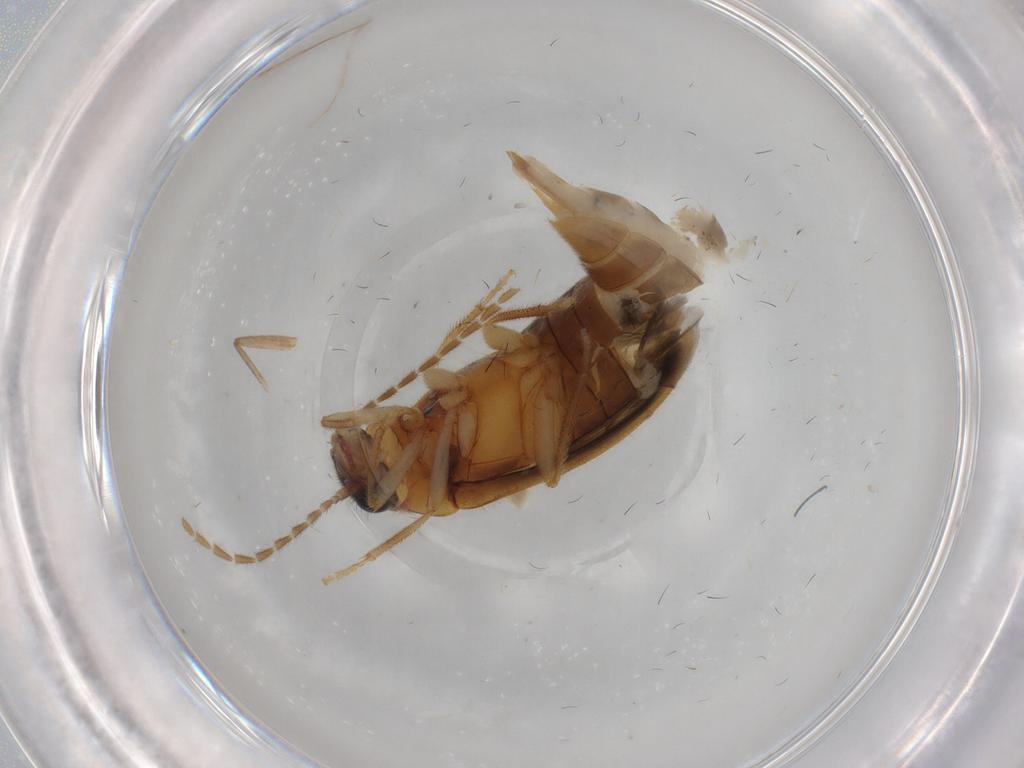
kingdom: Animalia
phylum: Arthropoda
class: Insecta
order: Coleoptera
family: Ptilodactylidae
